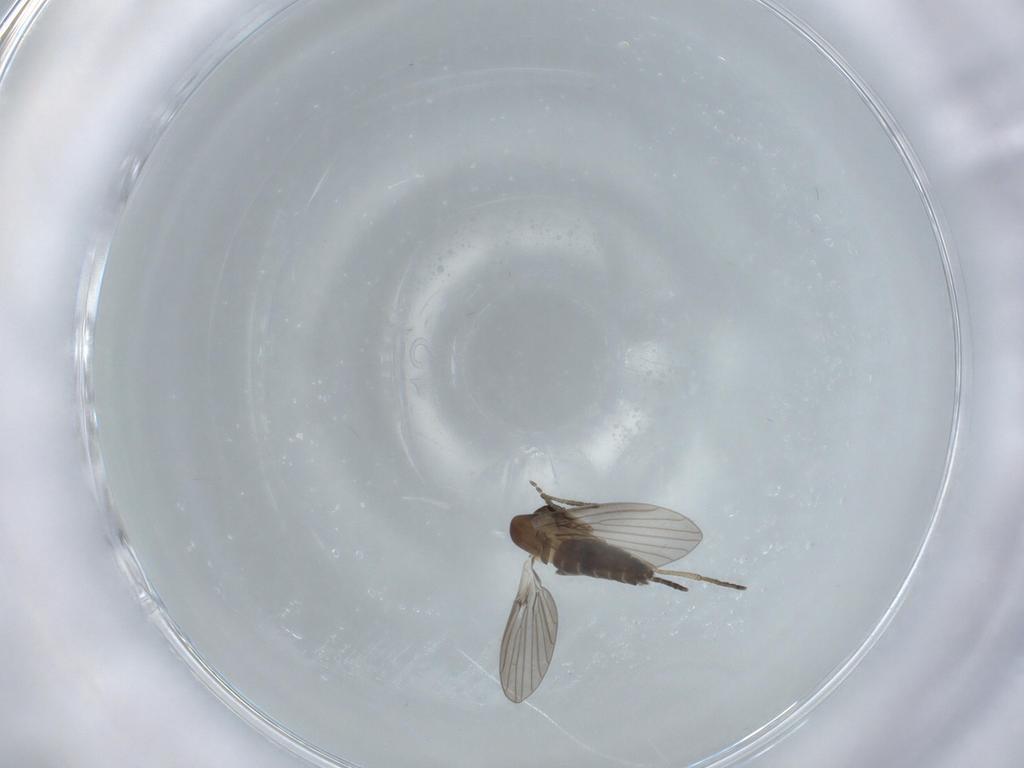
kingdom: Animalia
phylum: Arthropoda
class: Insecta
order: Diptera
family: Psychodidae
